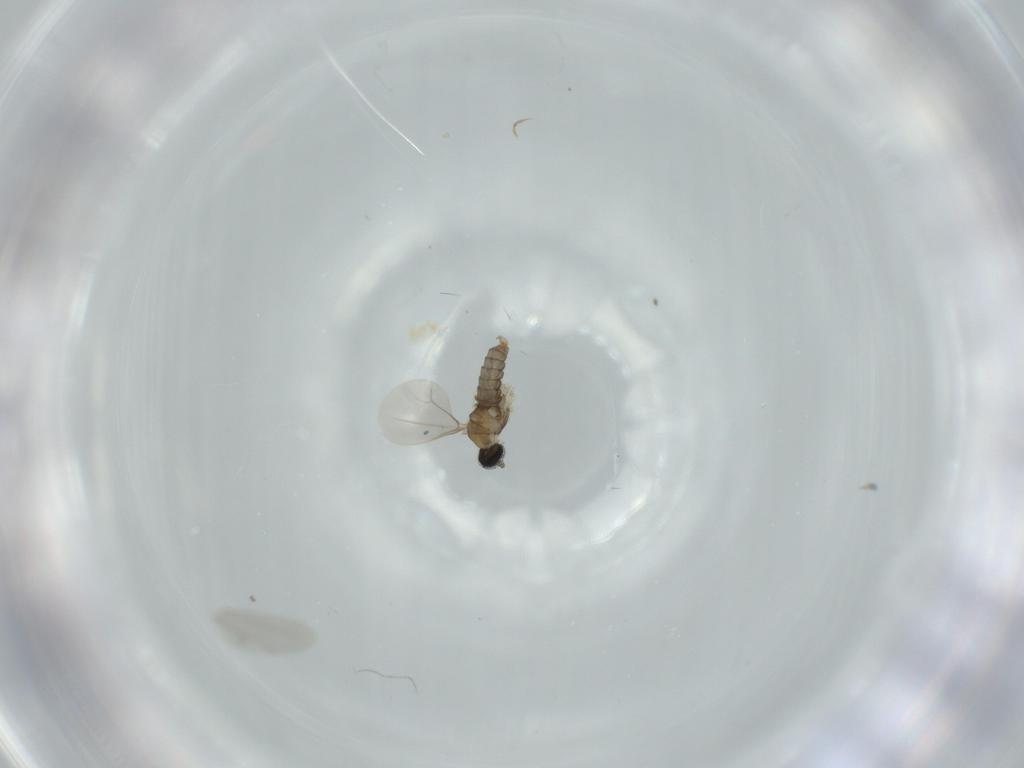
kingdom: Animalia
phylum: Arthropoda
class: Insecta
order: Diptera
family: Cecidomyiidae
